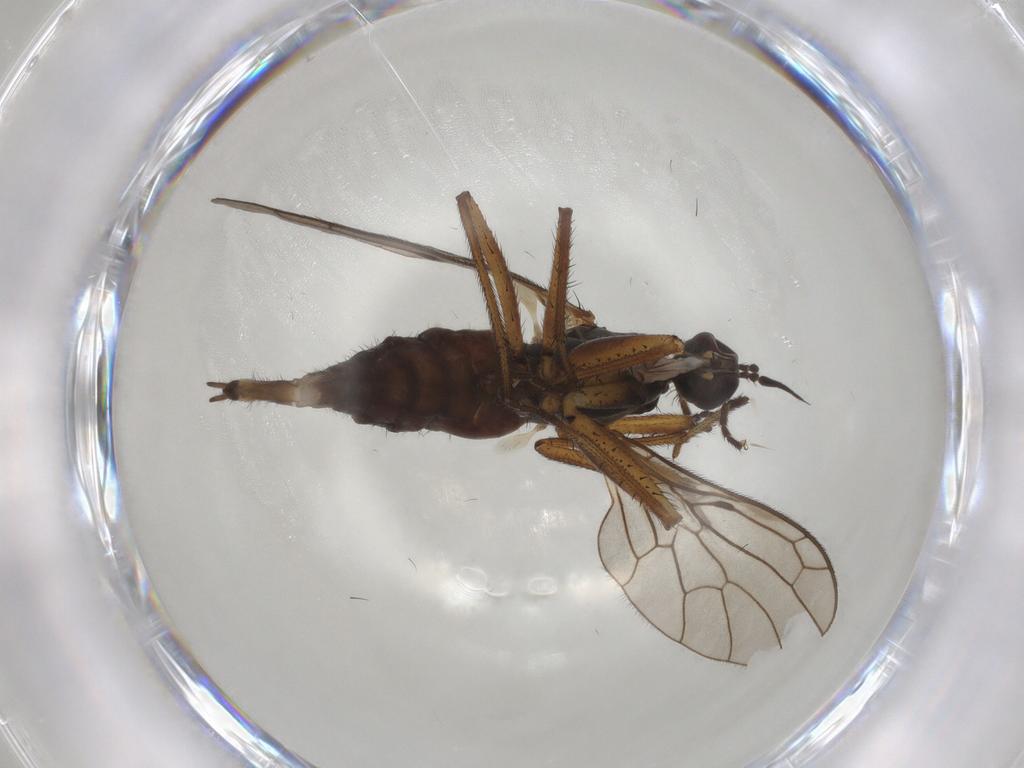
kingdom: Animalia
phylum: Arthropoda
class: Insecta
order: Diptera
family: Empididae
